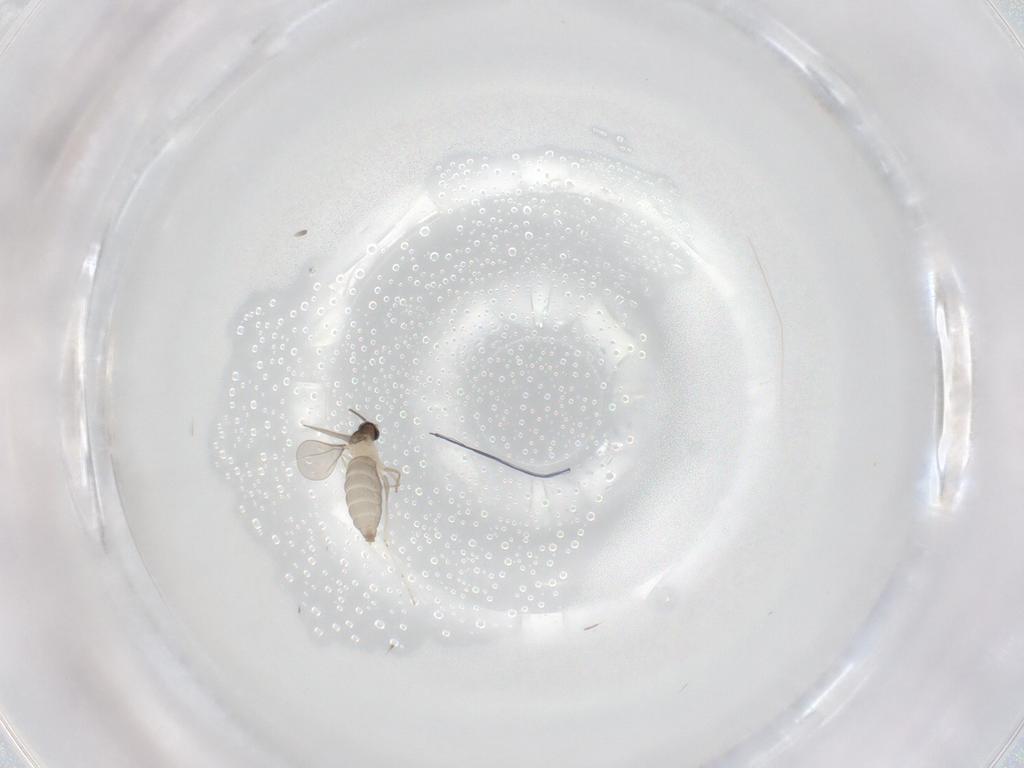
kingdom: Animalia
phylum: Arthropoda
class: Insecta
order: Diptera
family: Cecidomyiidae
